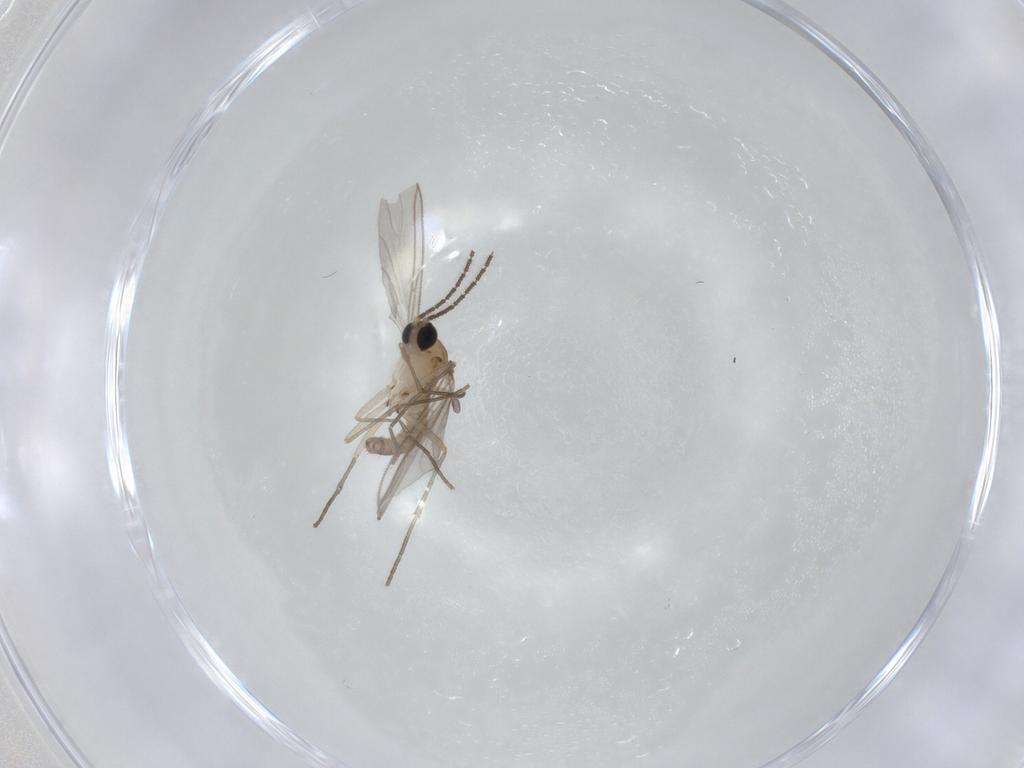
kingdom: Animalia
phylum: Arthropoda
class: Insecta
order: Diptera
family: Sciaridae
